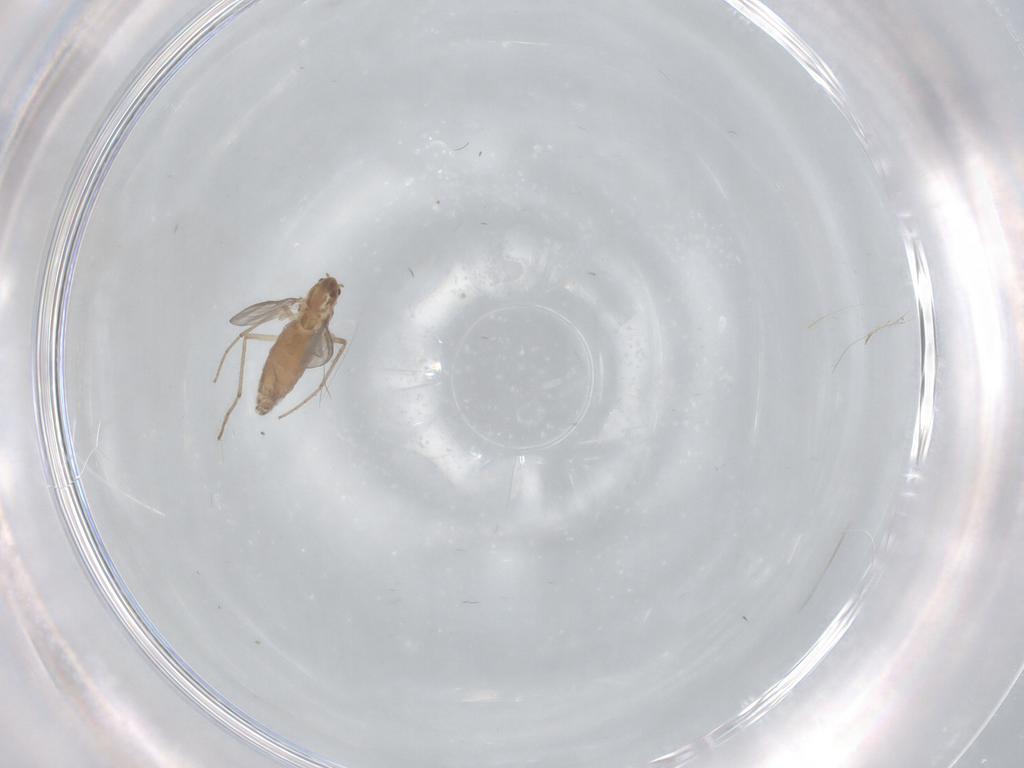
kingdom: Animalia
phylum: Arthropoda
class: Insecta
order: Diptera
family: Chironomidae
